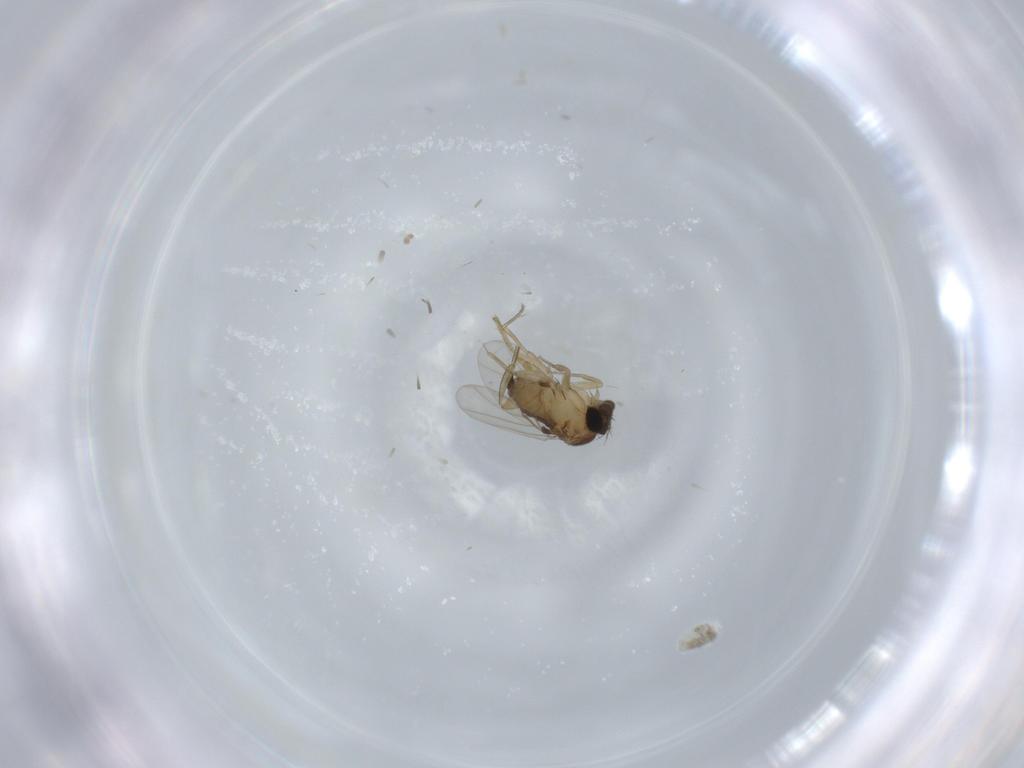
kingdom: Animalia
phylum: Arthropoda
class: Insecta
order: Diptera
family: Phoridae
